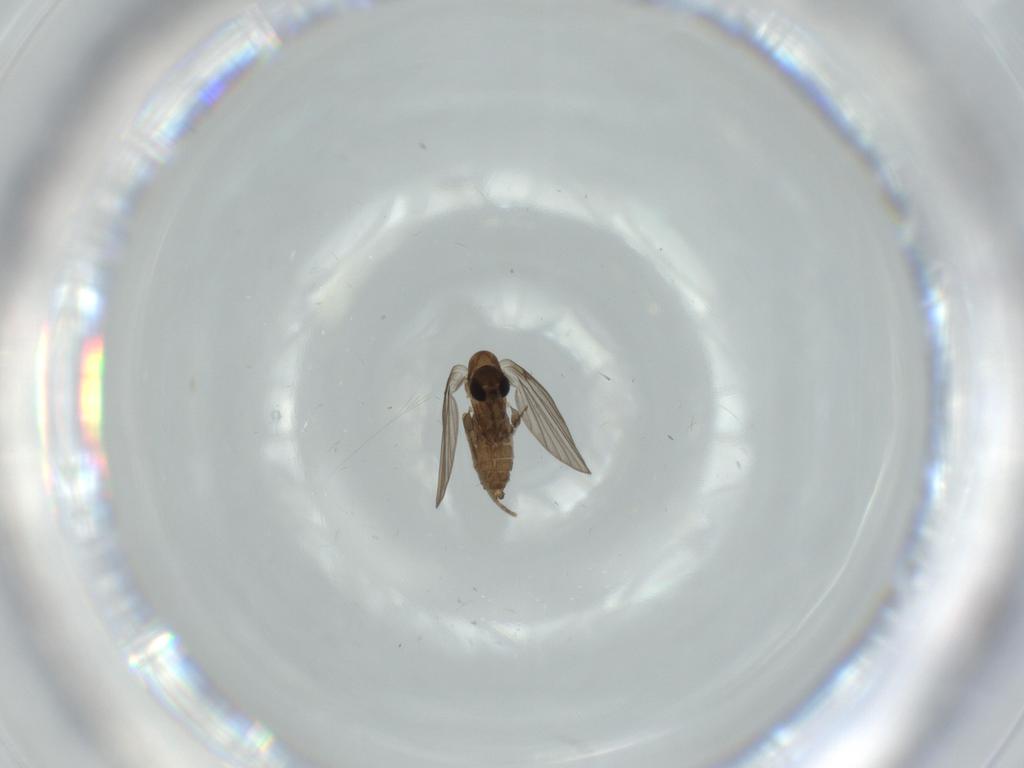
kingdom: Animalia
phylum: Arthropoda
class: Insecta
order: Diptera
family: Psychodidae
